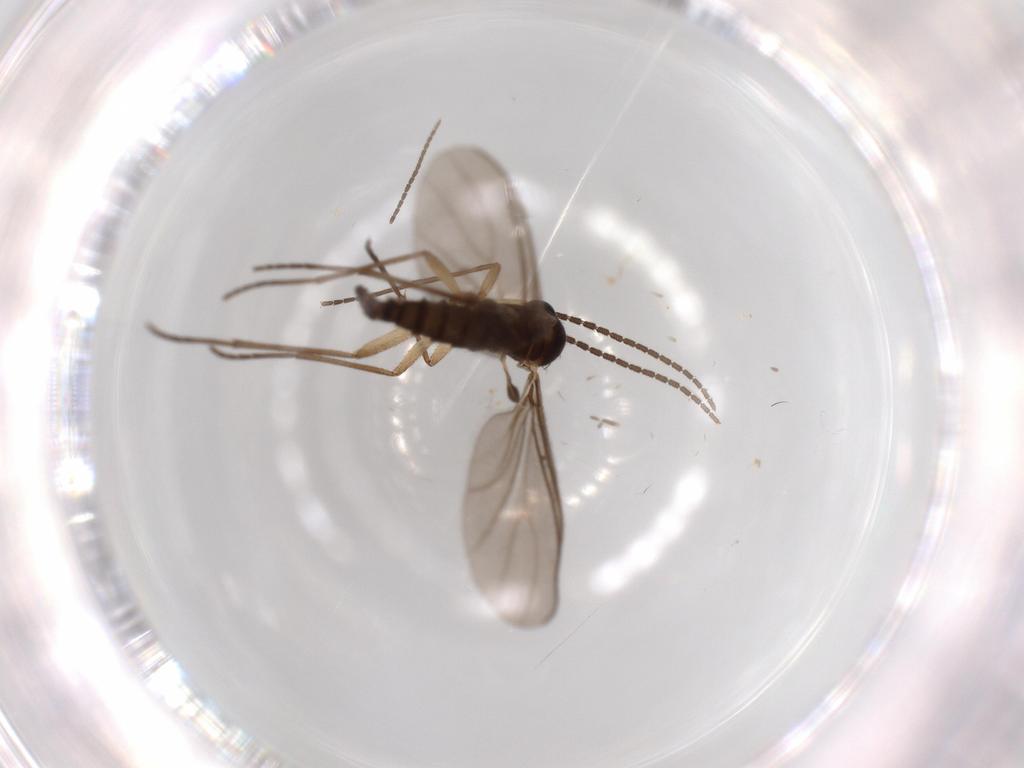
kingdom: Animalia
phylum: Arthropoda
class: Insecta
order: Diptera
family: Sciaridae
